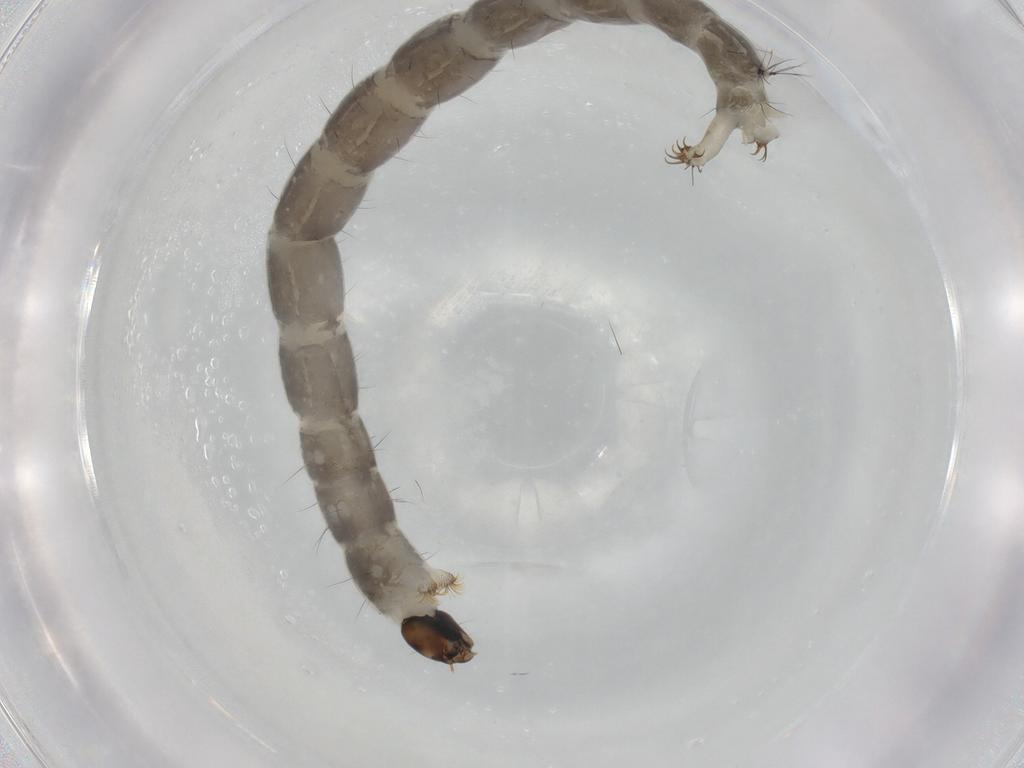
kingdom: Animalia
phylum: Arthropoda
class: Insecta
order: Diptera
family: Chironomidae
